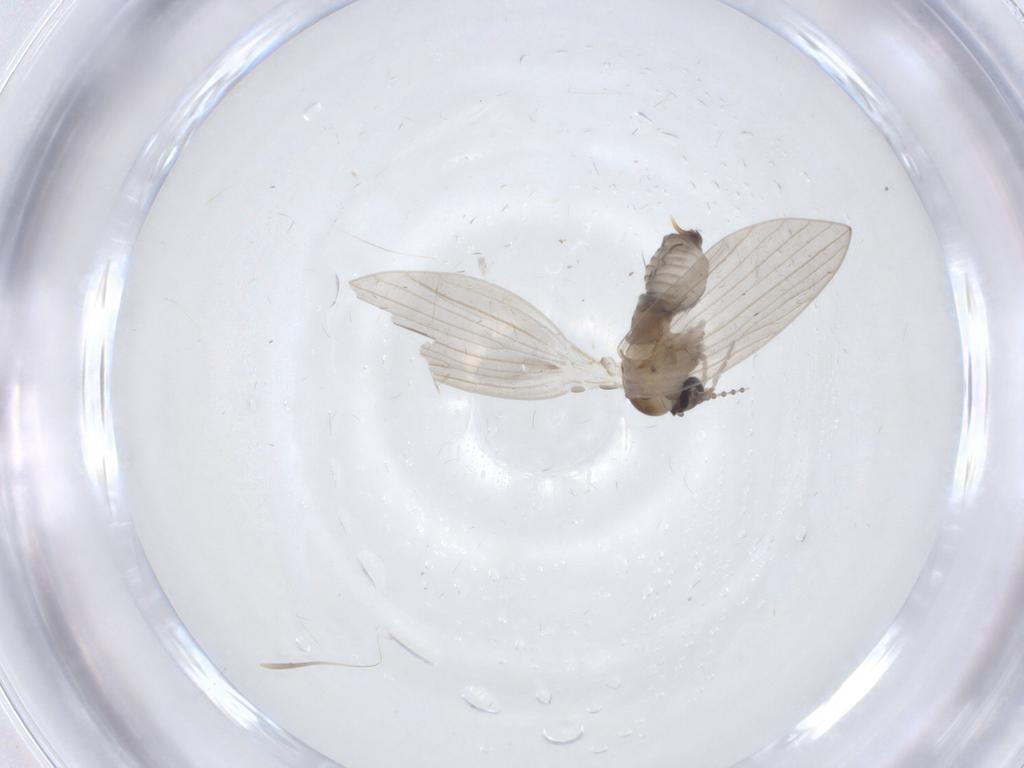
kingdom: Animalia
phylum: Arthropoda
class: Insecta
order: Diptera
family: Psychodidae
